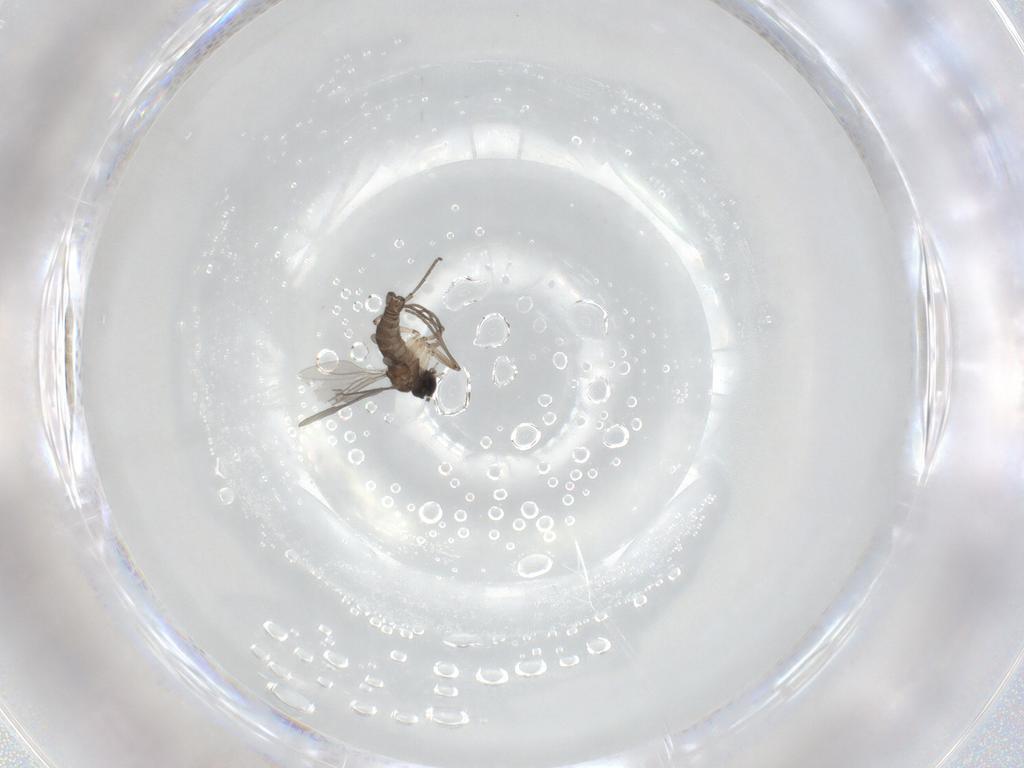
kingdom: Animalia
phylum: Arthropoda
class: Insecta
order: Diptera
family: Sciaridae
